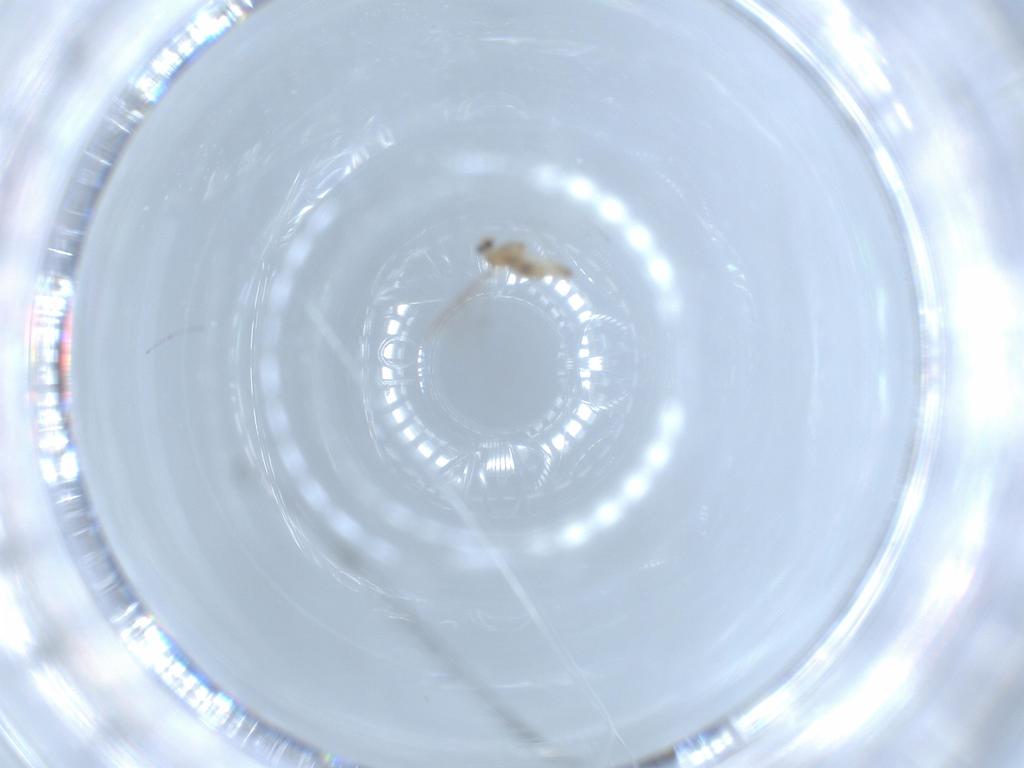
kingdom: Animalia
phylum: Arthropoda
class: Insecta
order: Diptera
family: Cecidomyiidae
